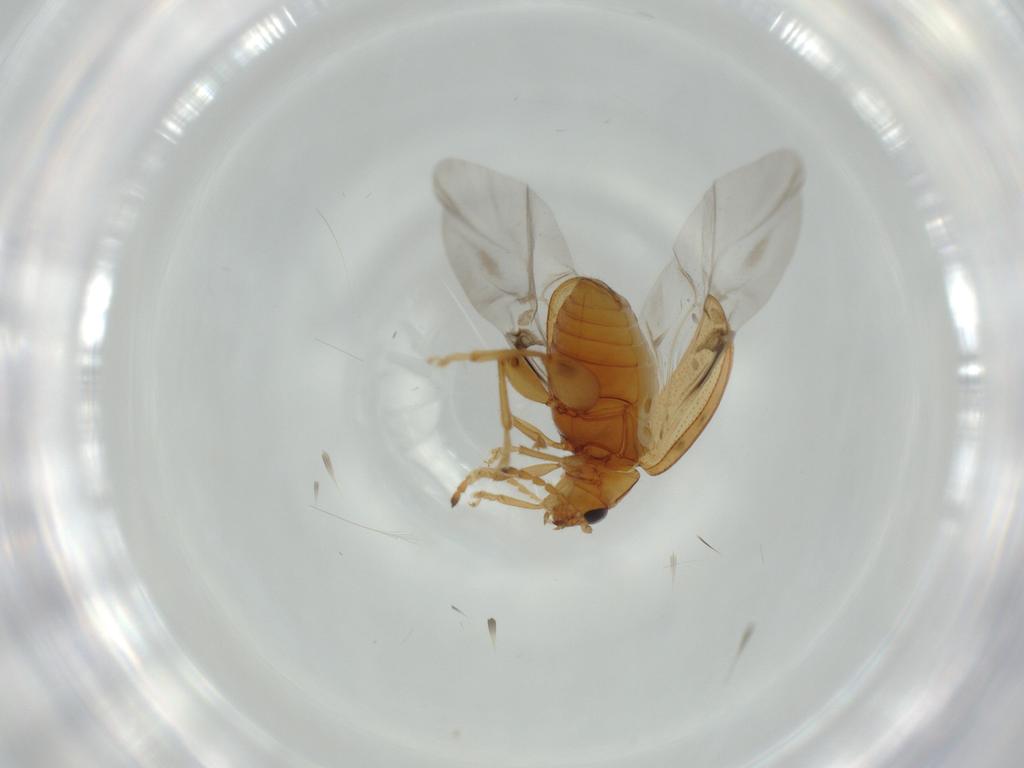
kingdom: Animalia
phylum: Arthropoda
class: Insecta
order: Coleoptera
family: Chrysomelidae
